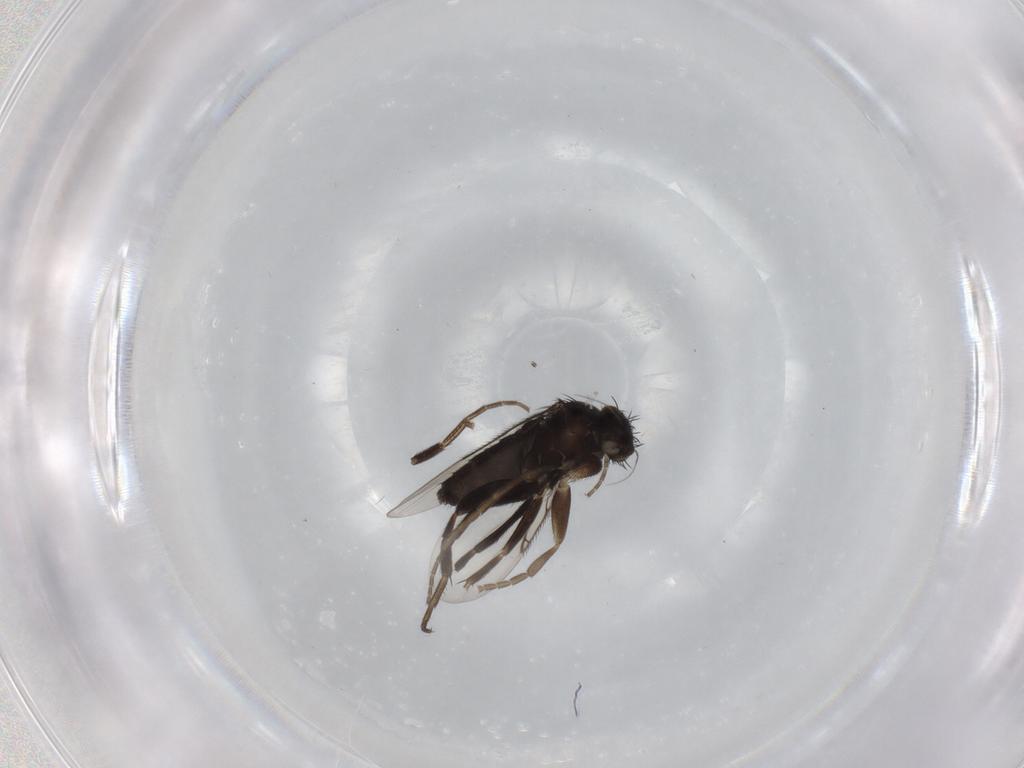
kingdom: Animalia
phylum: Arthropoda
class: Insecta
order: Diptera
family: Phoridae
